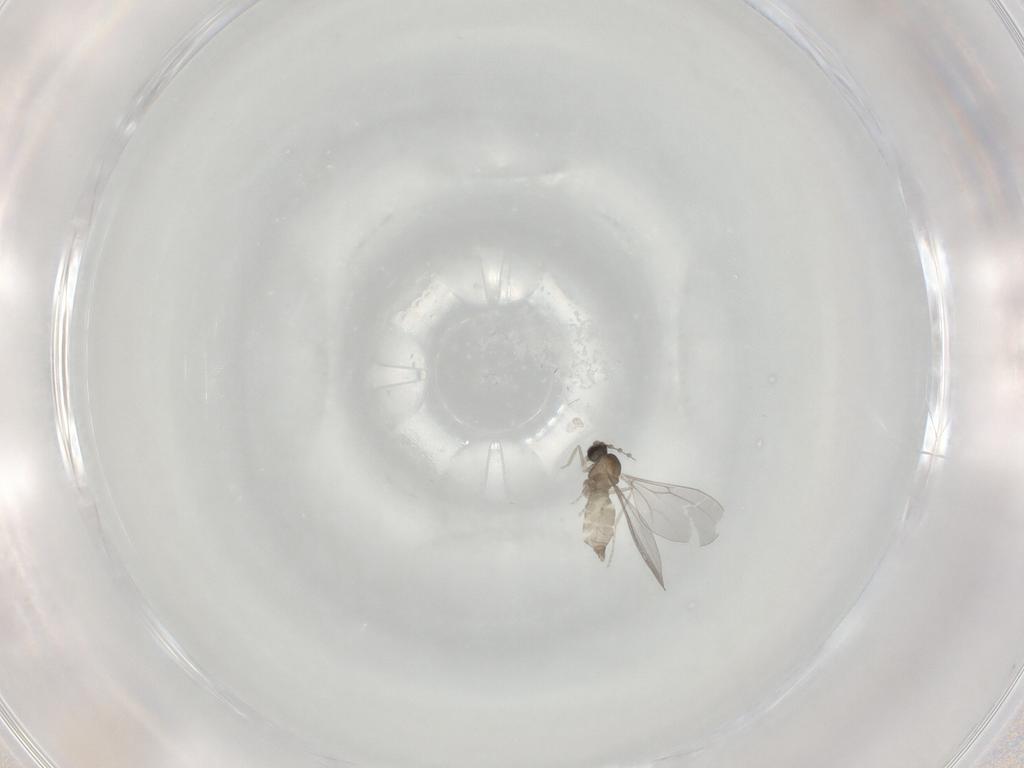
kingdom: Animalia
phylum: Arthropoda
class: Insecta
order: Diptera
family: Cecidomyiidae
